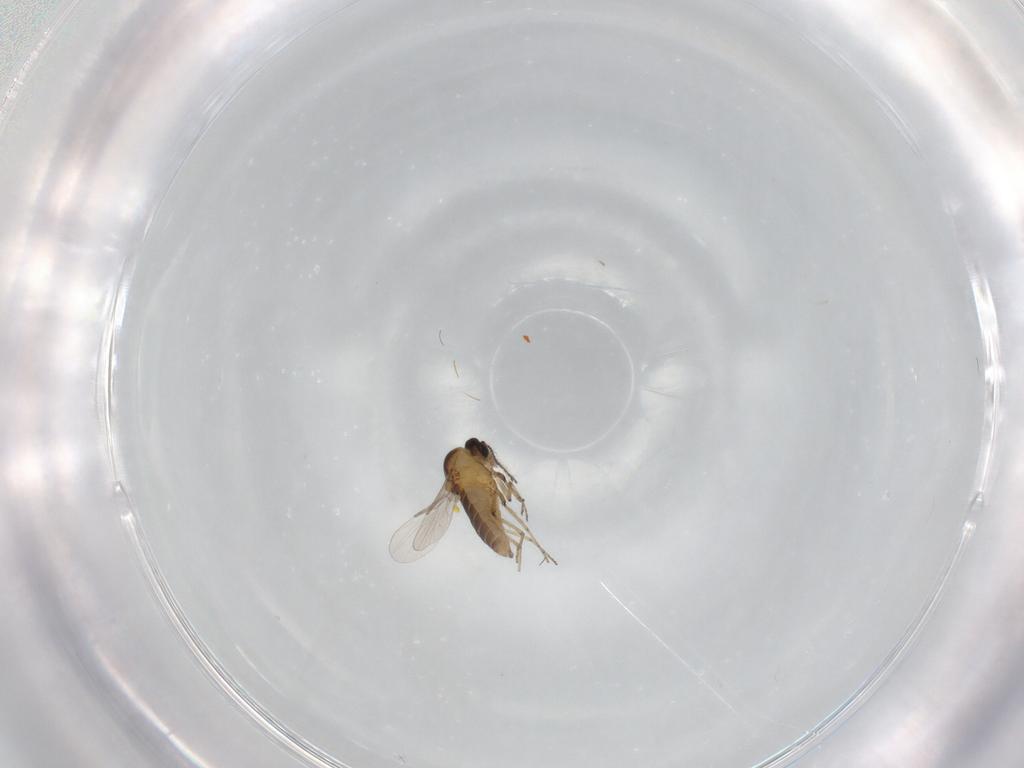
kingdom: Animalia
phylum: Arthropoda
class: Insecta
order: Diptera
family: Ceratopogonidae
